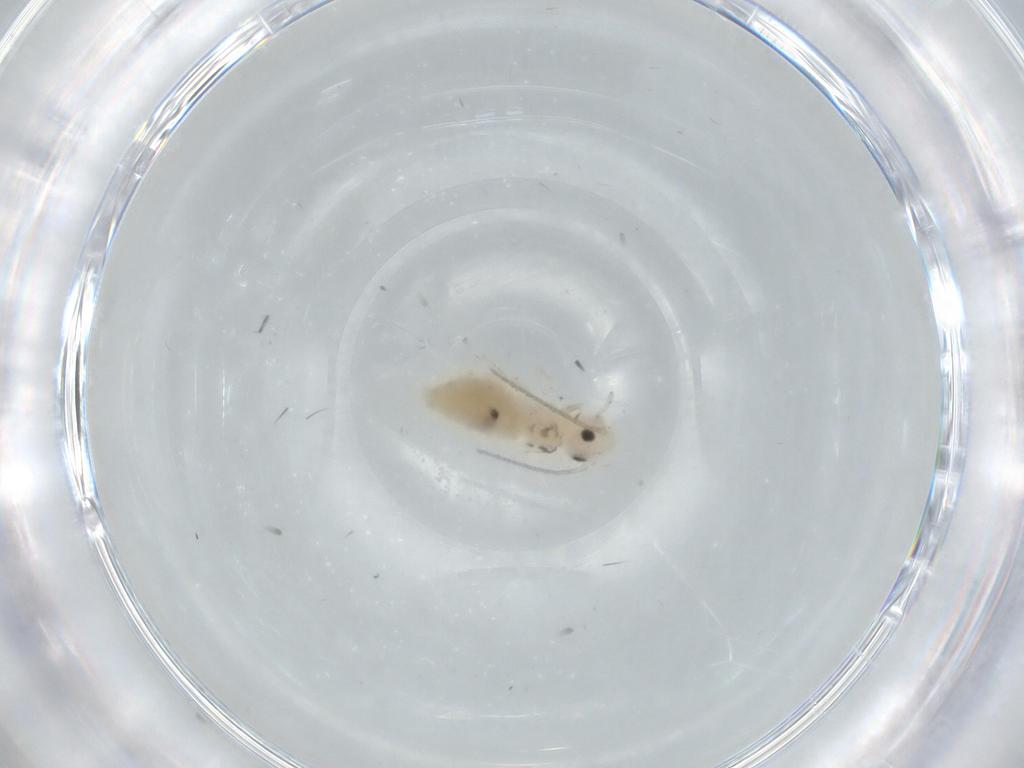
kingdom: Animalia
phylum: Arthropoda
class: Insecta
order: Psocodea
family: Caeciliusidae
